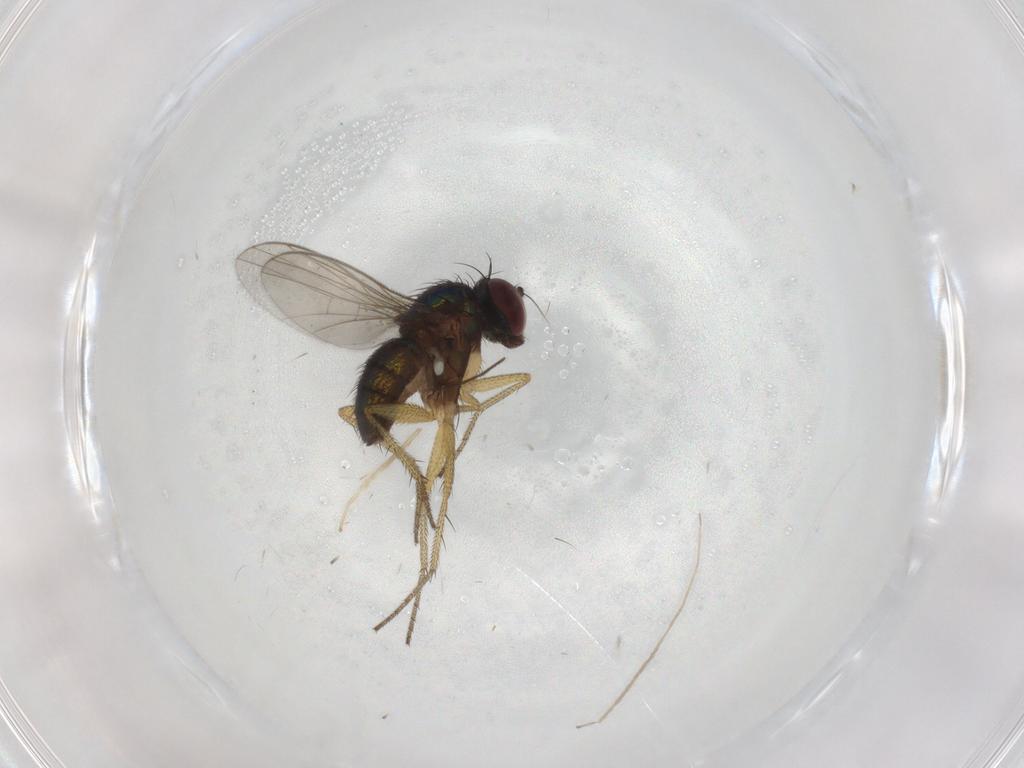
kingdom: Animalia
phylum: Arthropoda
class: Insecta
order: Diptera
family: Chironomidae
